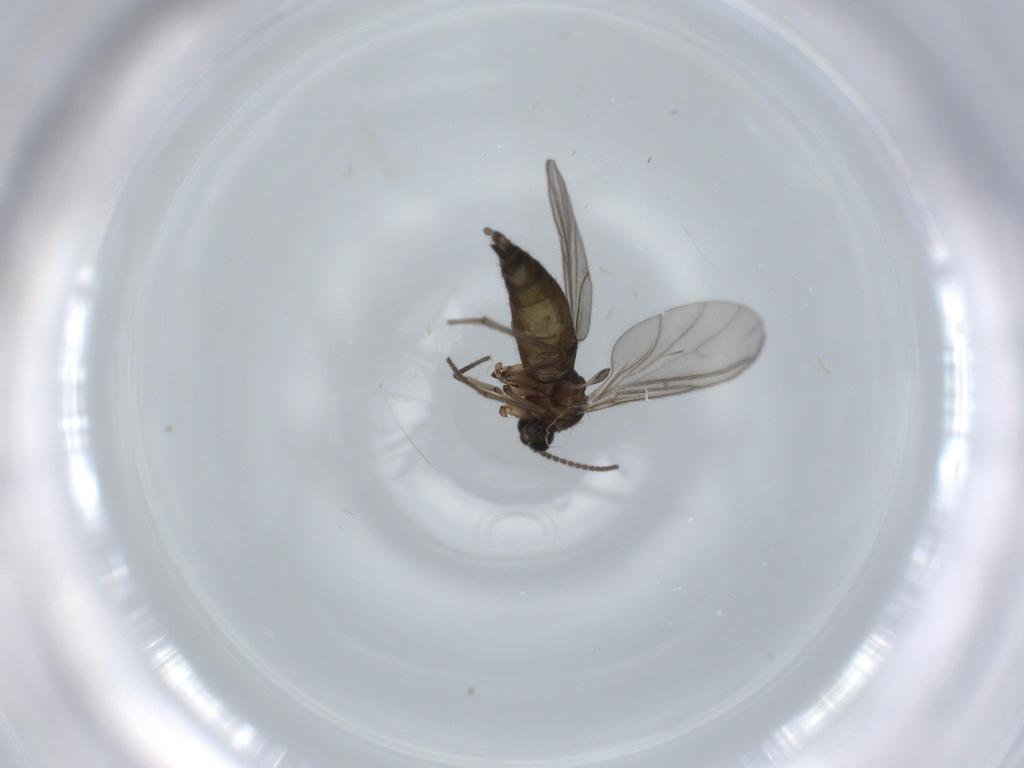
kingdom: Animalia
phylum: Arthropoda
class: Insecta
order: Diptera
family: Sciaridae
